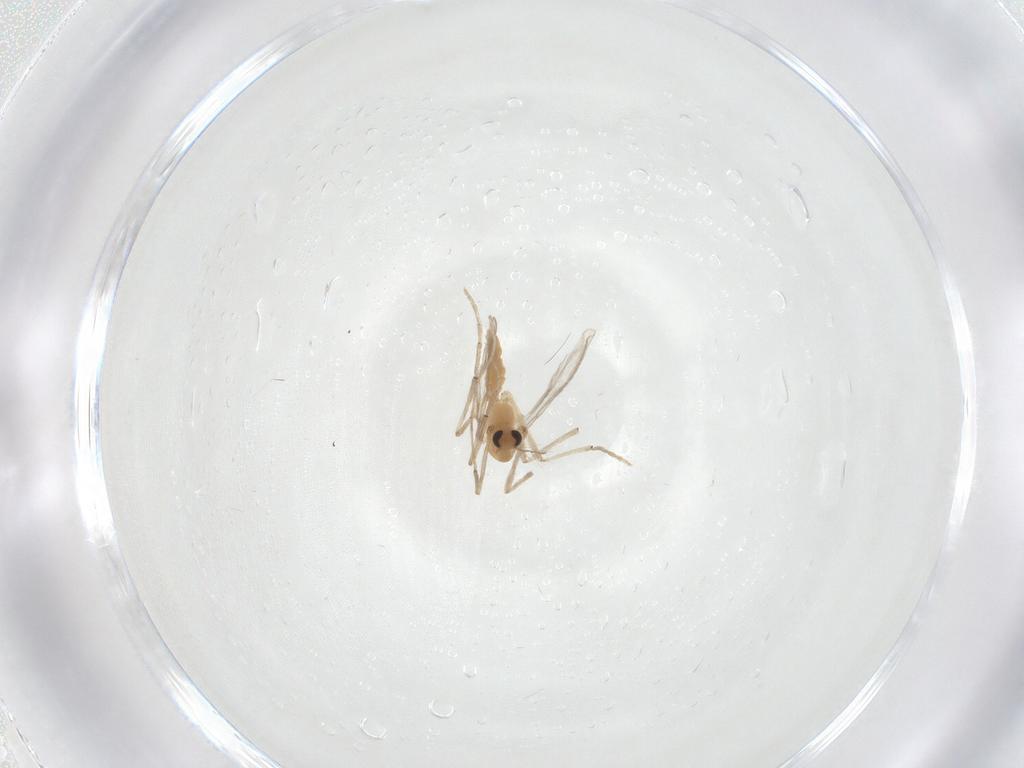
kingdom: Animalia
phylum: Arthropoda
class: Insecta
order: Diptera
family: Chironomidae
